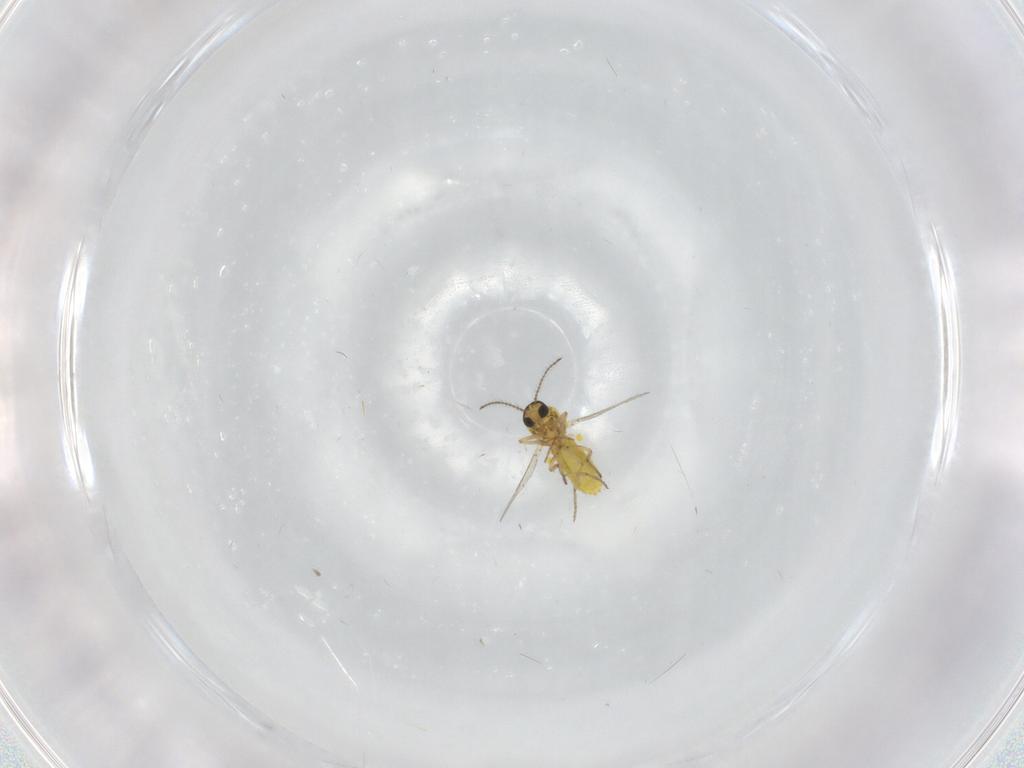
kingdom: Animalia
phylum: Arthropoda
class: Insecta
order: Diptera
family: Ceratopogonidae
